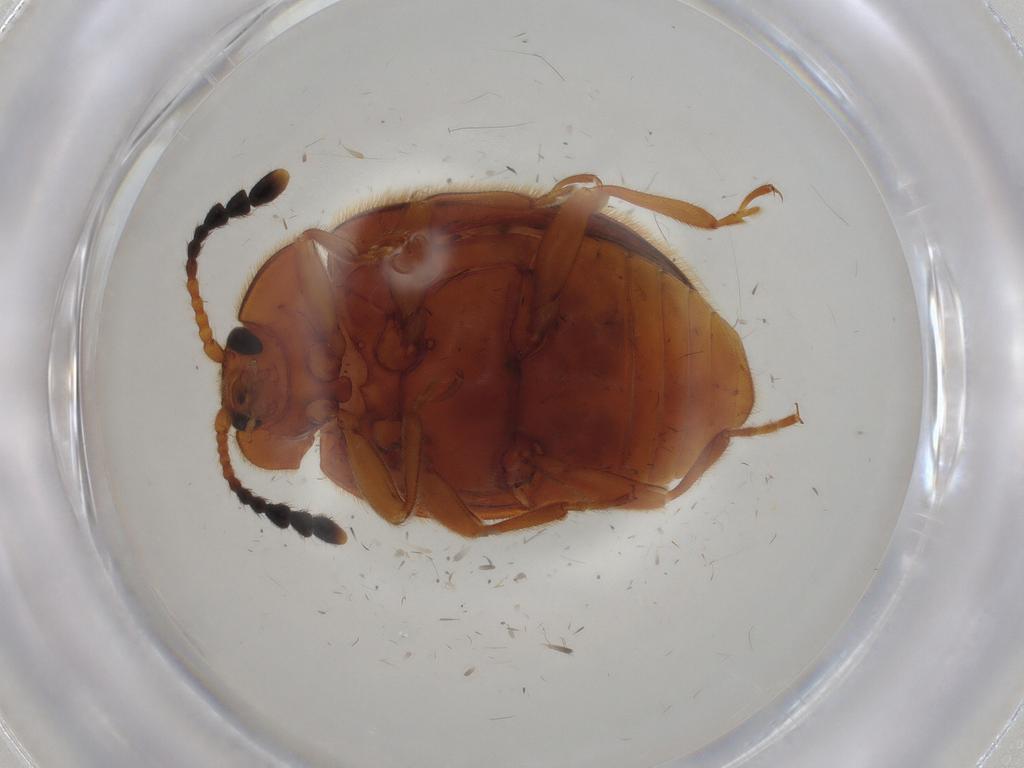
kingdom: Animalia
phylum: Arthropoda
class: Insecta
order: Coleoptera
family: Endomychidae
